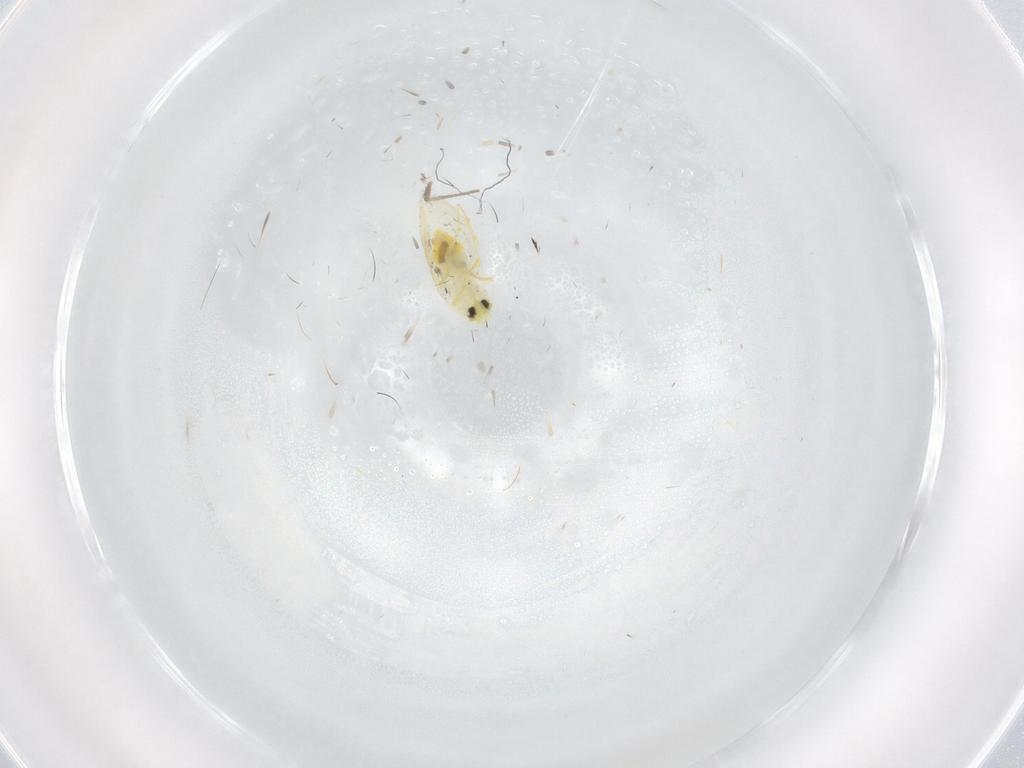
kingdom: Animalia
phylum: Arthropoda
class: Insecta
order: Hemiptera
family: Aleyrodidae
